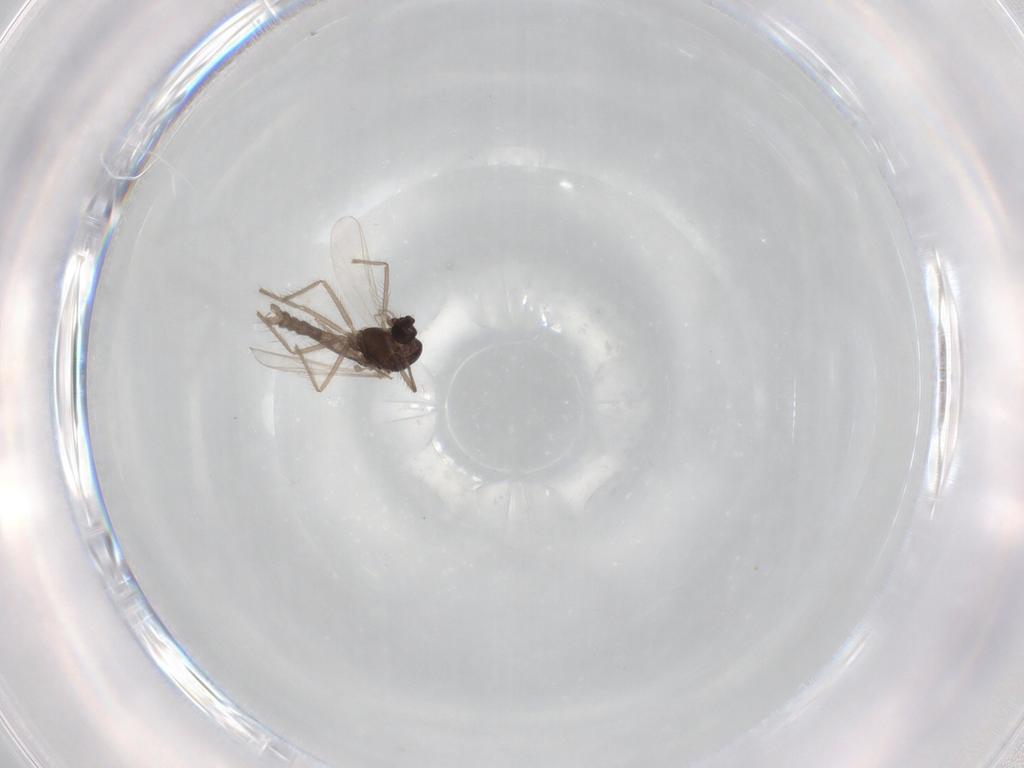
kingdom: Animalia
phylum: Arthropoda
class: Insecta
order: Diptera
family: Chironomidae
